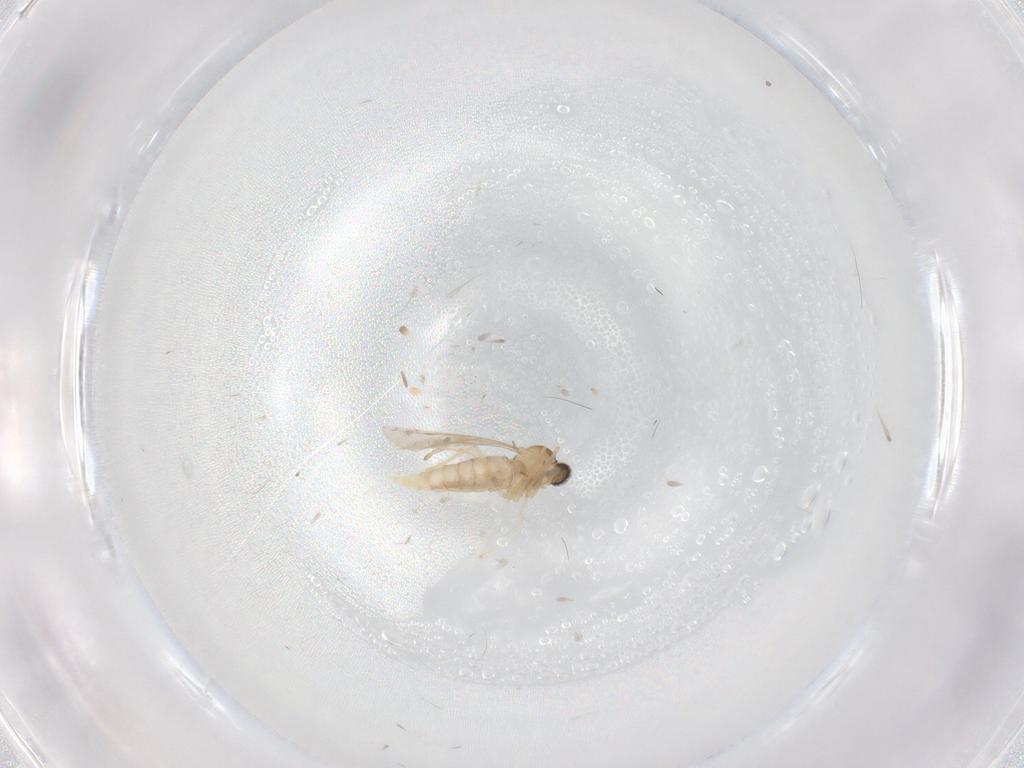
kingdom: Animalia
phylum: Arthropoda
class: Insecta
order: Diptera
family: Cecidomyiidae
